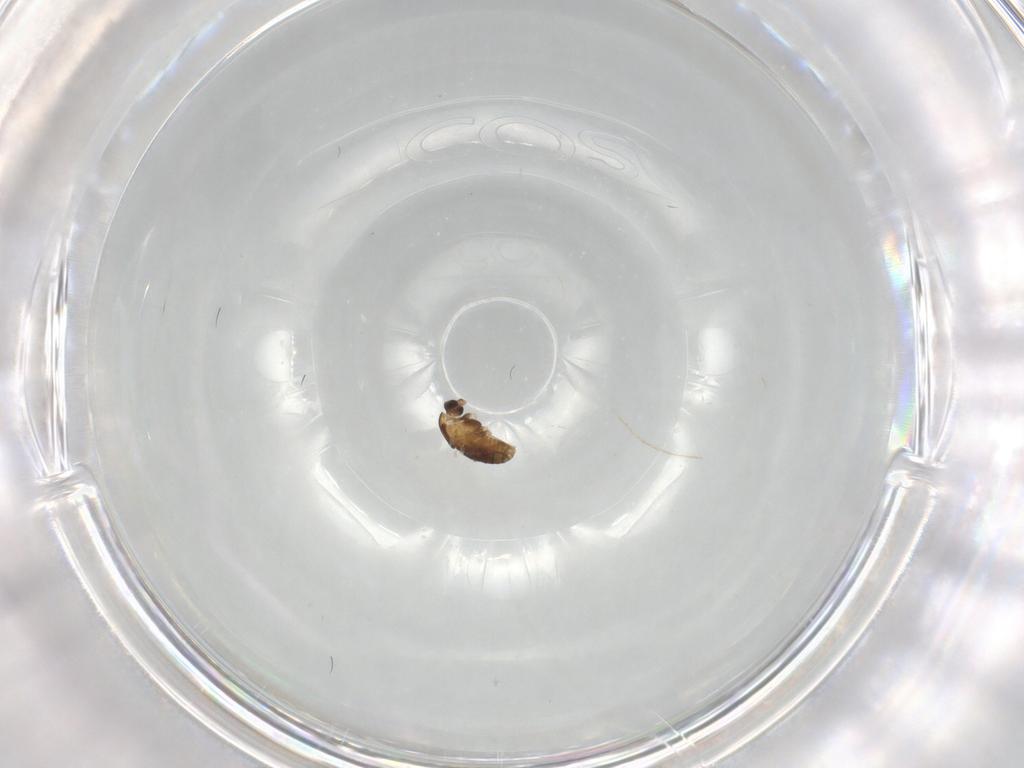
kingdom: Animalia
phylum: Arthropoda
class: Insecta
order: Diptera
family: Chironomidae
